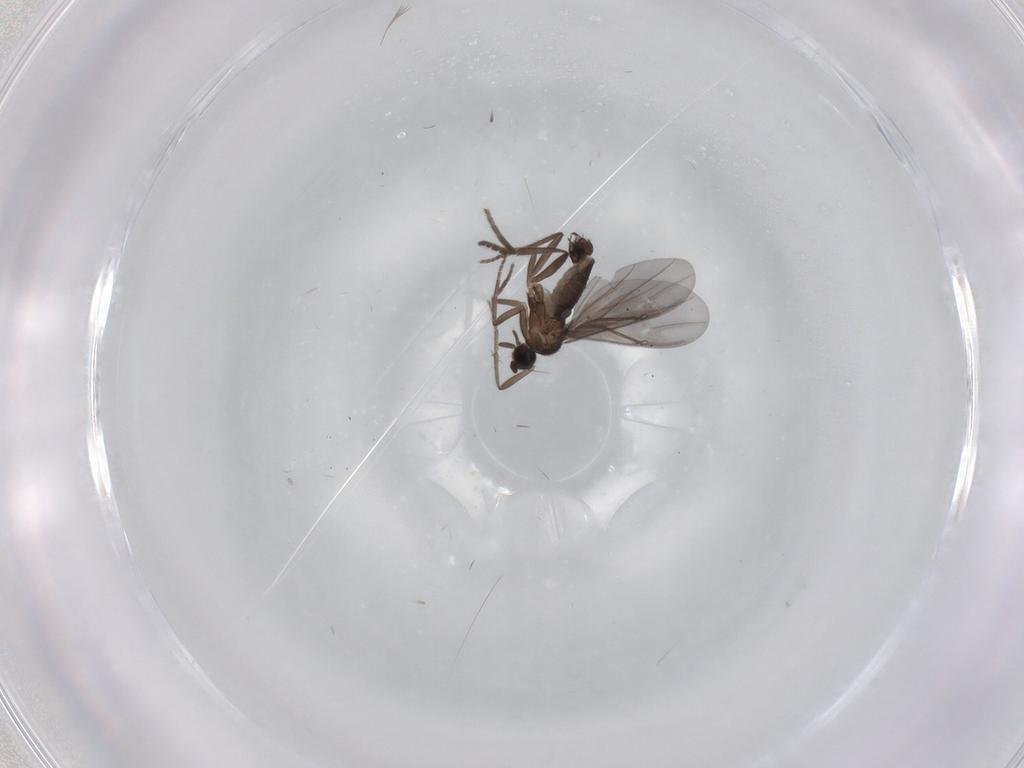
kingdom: Animalia
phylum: Arthropoda
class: Insecta
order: Diptera
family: Phoridae
